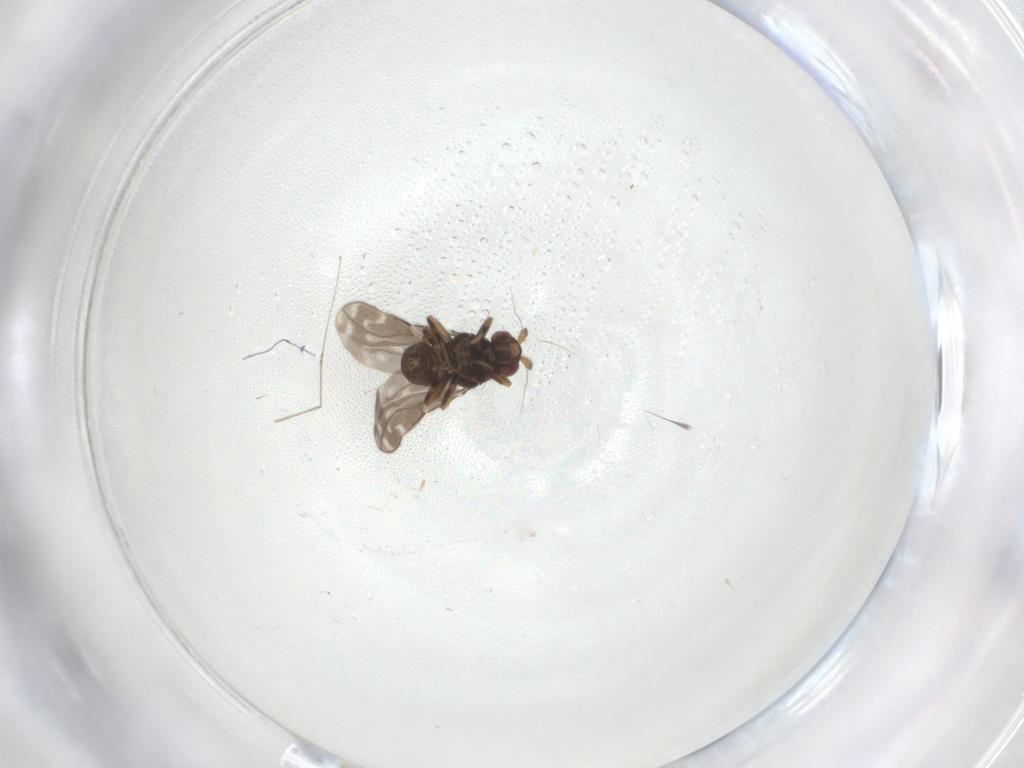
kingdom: Animalia
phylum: Arthropoda
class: Insecta
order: Diptera
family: Sphaeroceridae
